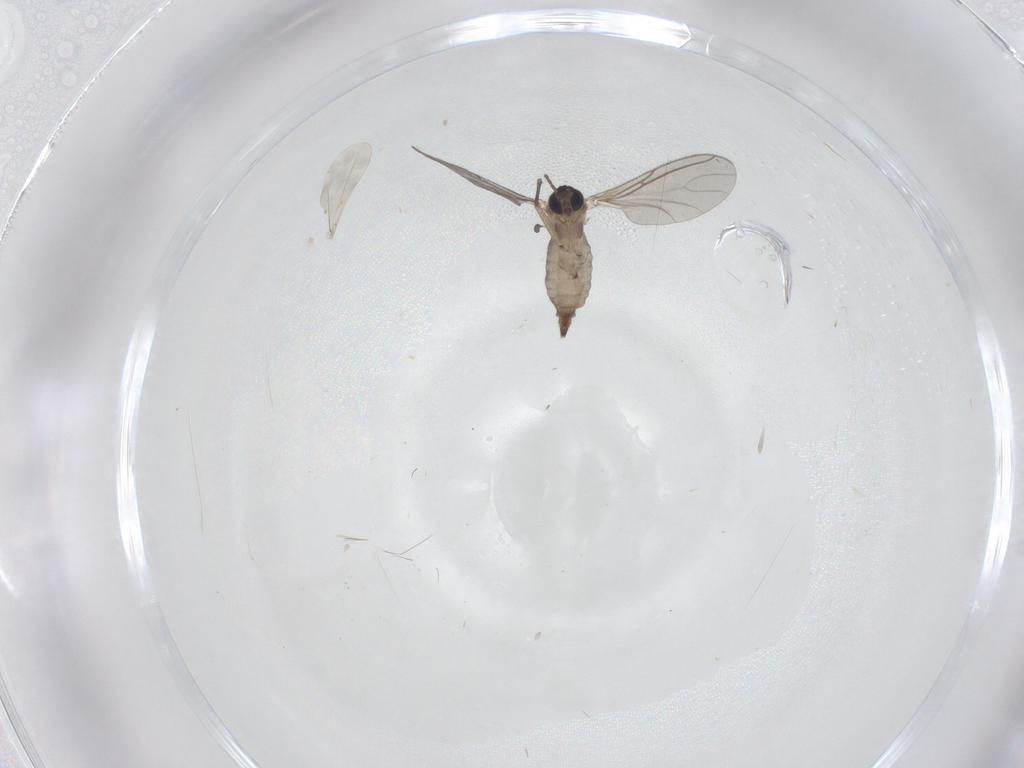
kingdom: Animalia
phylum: Arthropoda
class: Insecta
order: Diptera
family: Sciaridae
